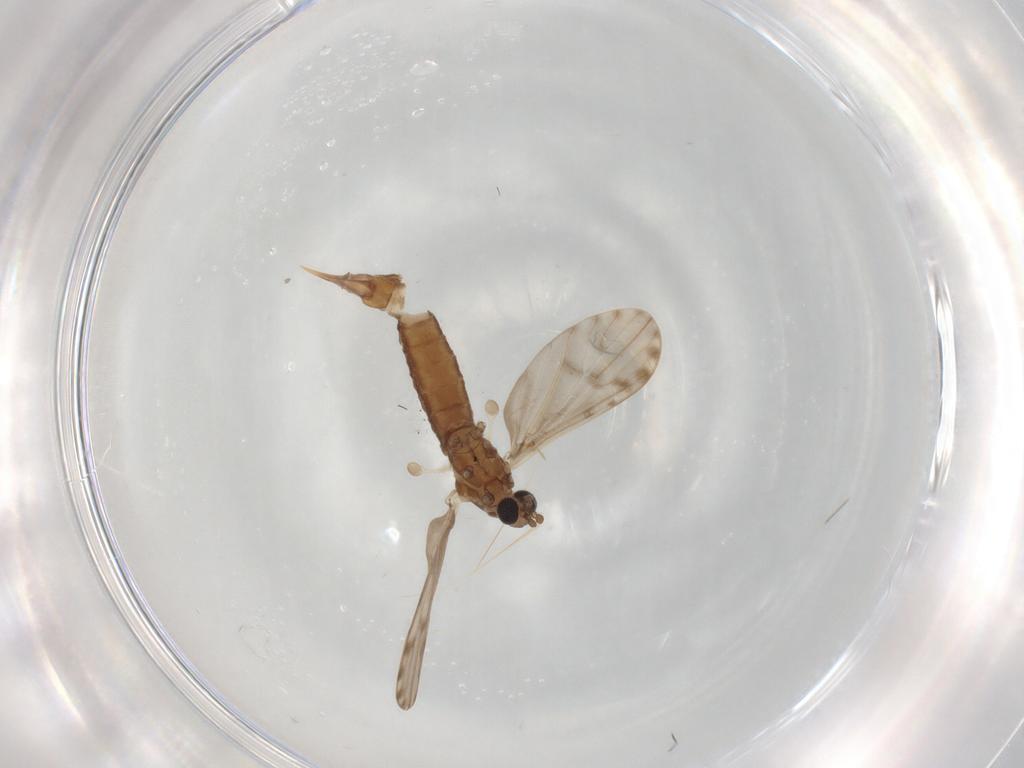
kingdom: Animalia
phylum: Arthropoda
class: Insecta
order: Diptera
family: Limoniidae
